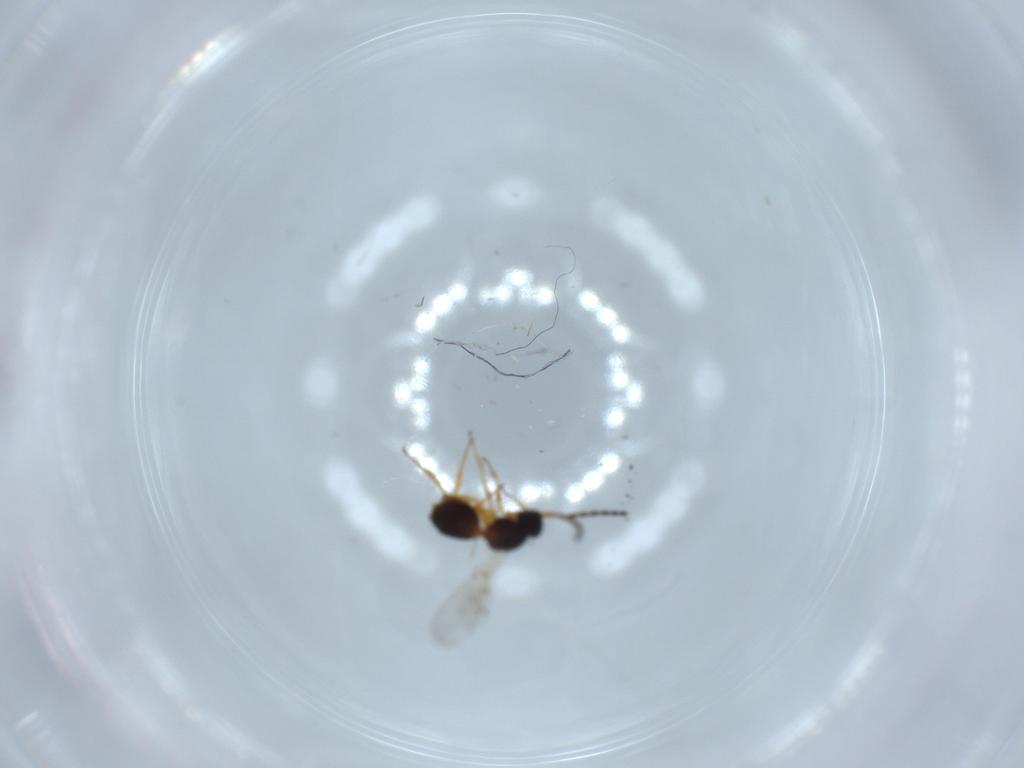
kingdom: Animalia
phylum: Arthropoda
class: Insecta
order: Hymenoptera
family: Figitidae
